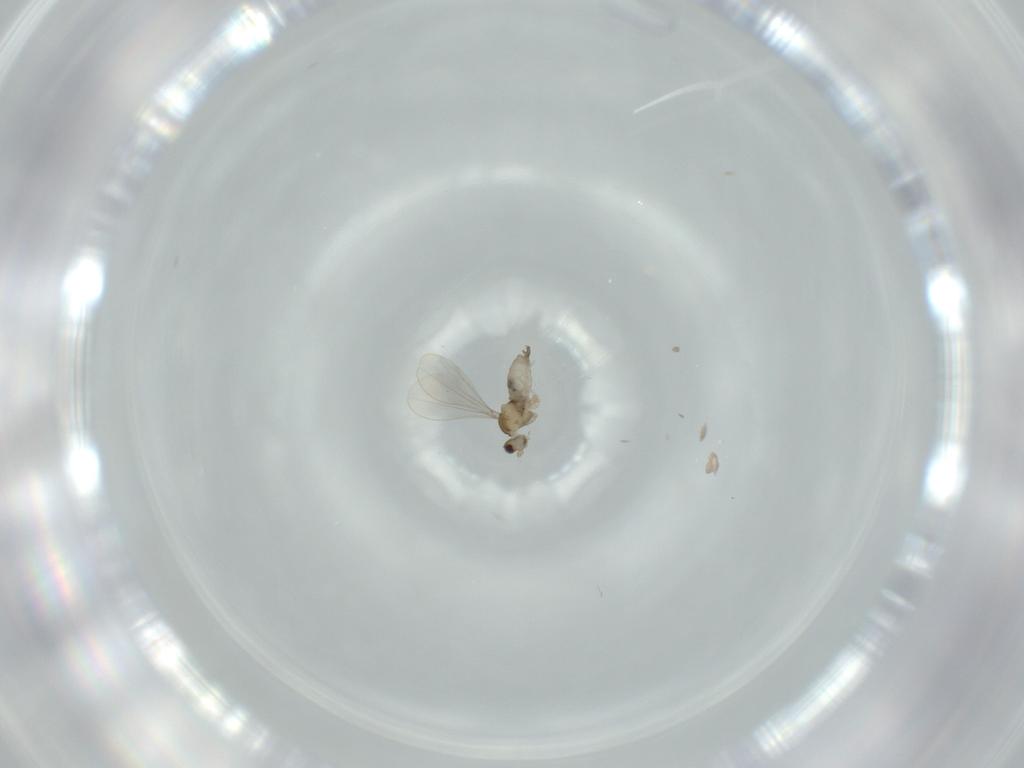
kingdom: Animalia
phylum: Arthropoda
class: Insecta
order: Diptera
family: Cecidomyiidae
